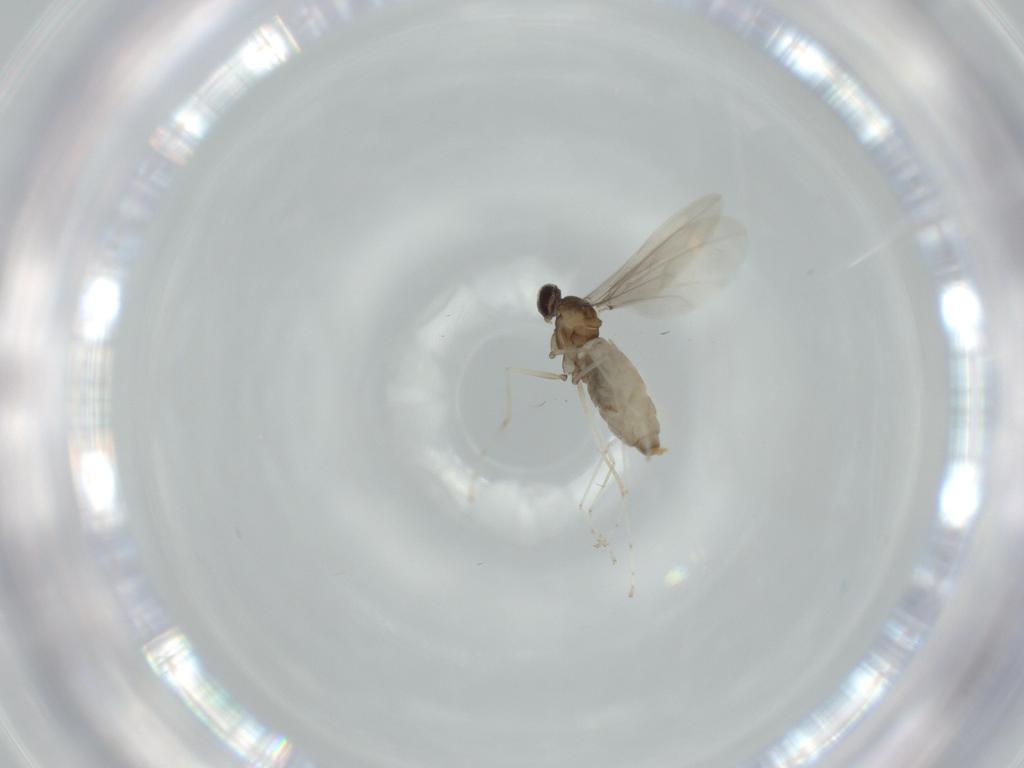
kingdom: Animalia
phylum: Arthropoda
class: Insecta
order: Diptera
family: Cecidomyiidae
